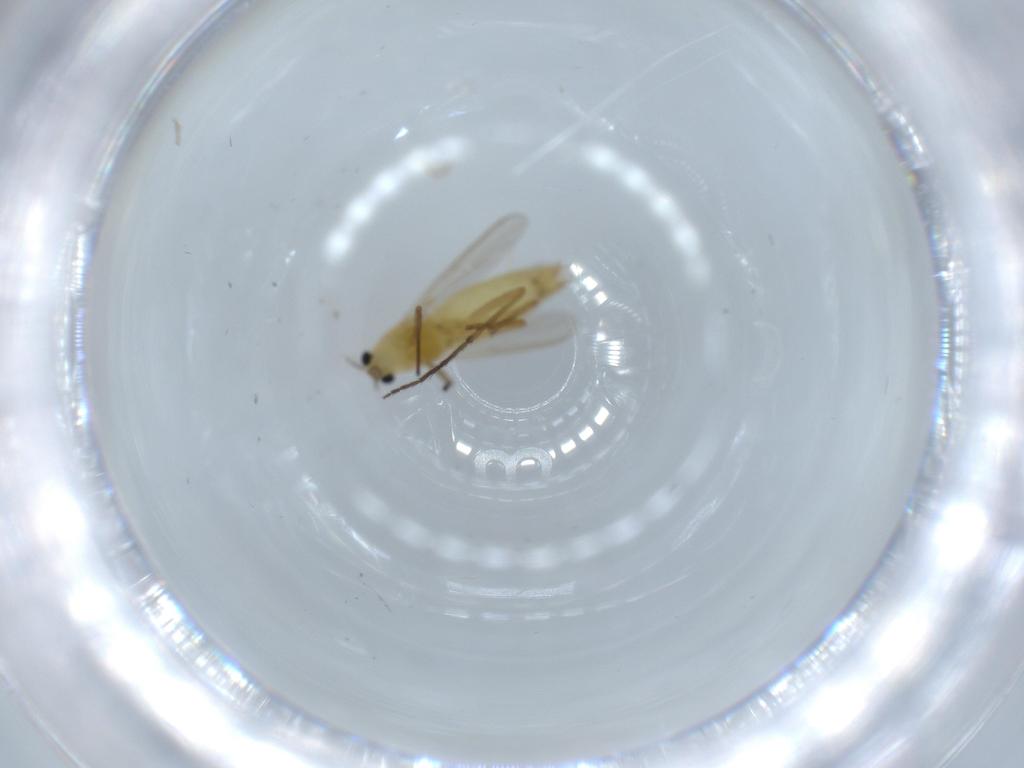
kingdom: Animalia
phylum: Arthropoda
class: Insecta
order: Diptera
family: Chironomidae
